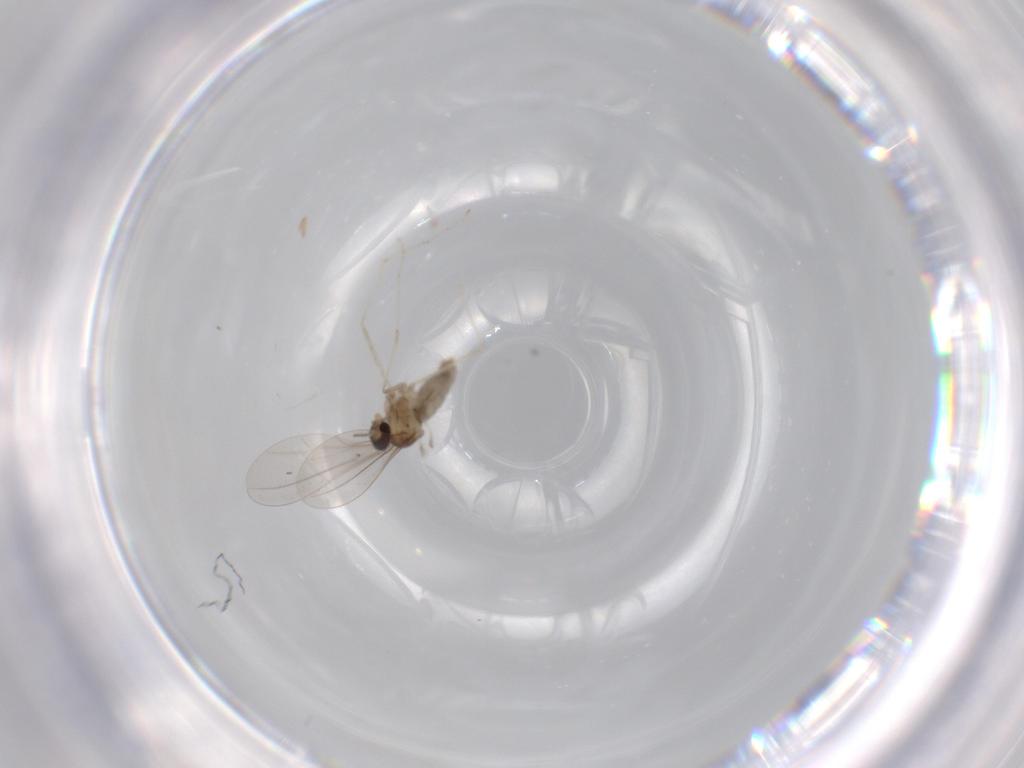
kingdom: Animalia
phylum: Arthropoda
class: Insecta
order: Diptera
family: Cecidomyiidae
